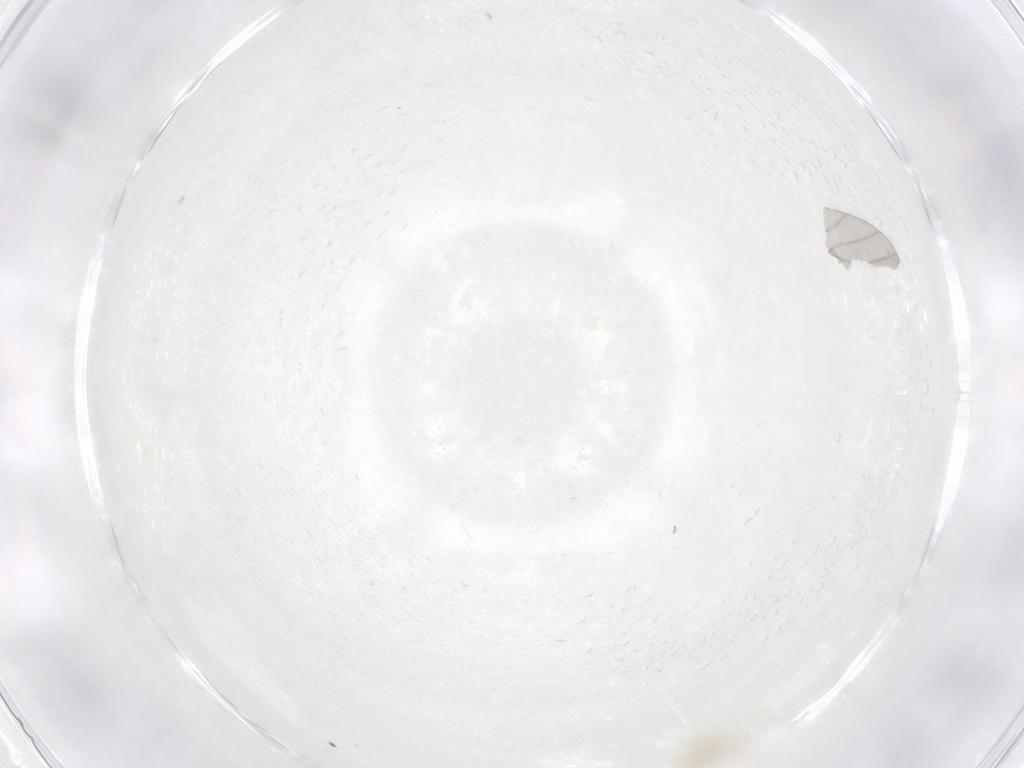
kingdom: Animalia
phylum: Arthropoda
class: Arachnida
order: Trombidiformes
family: Erythraeidae
